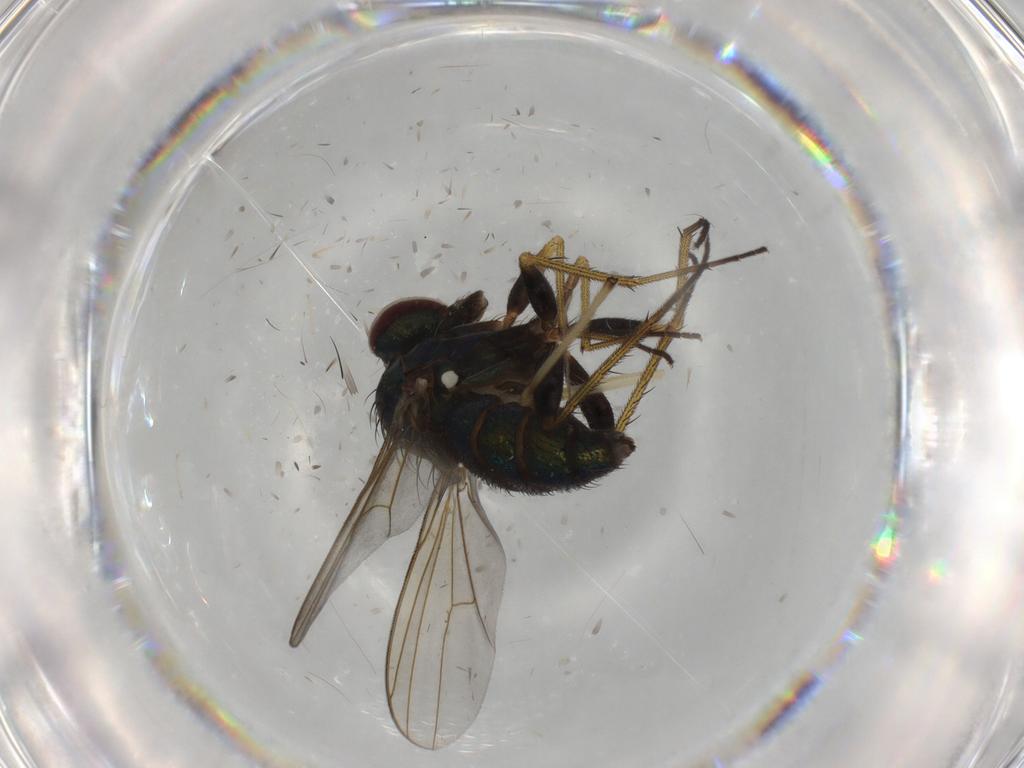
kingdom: Animalia
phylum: Arthropoda
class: Insecta
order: Diptera
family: Dolichopodidae
